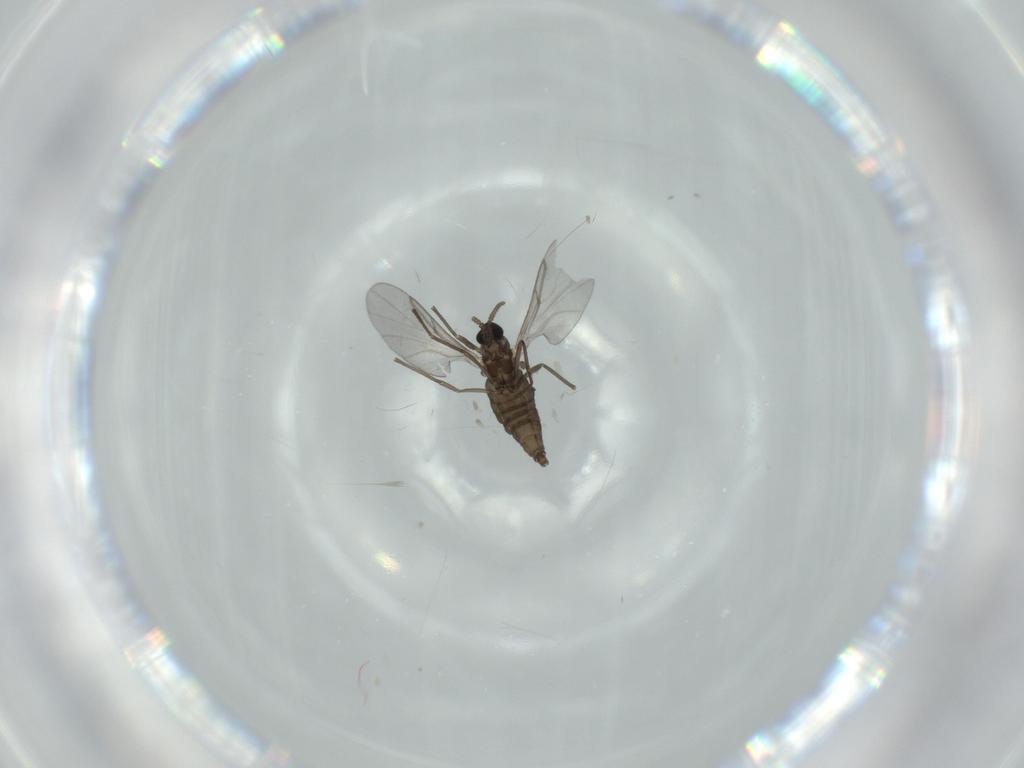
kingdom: Animalia
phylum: Arthropoda
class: Insecta
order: Diptera
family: Cecidomyiidae
